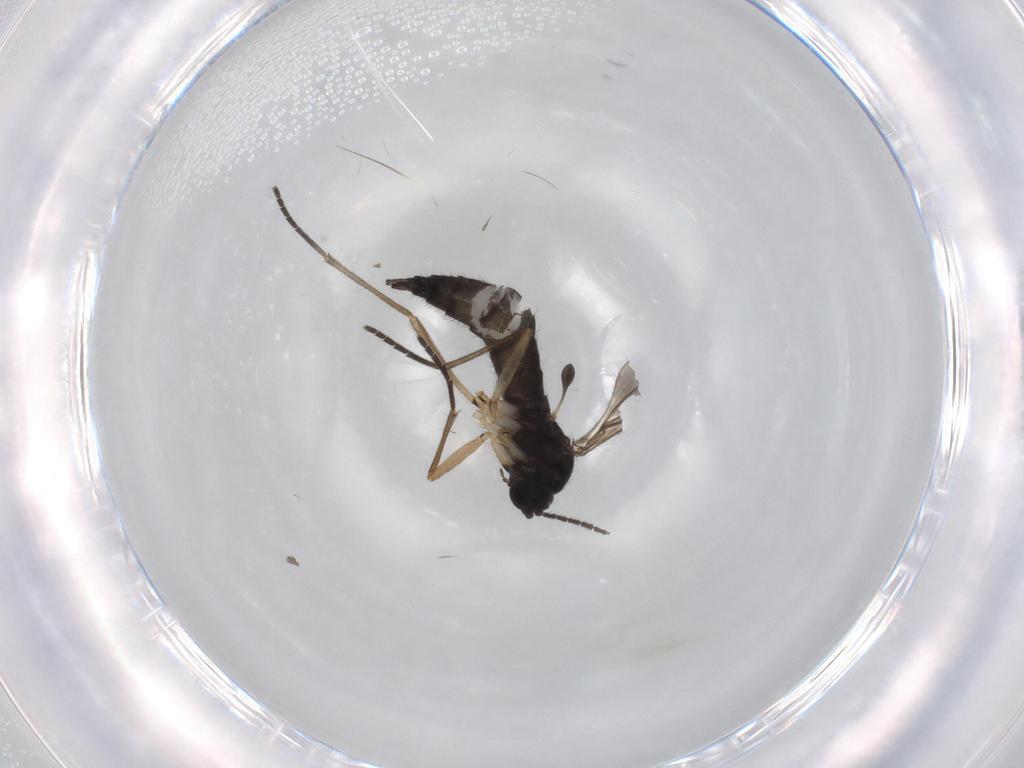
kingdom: Animalia
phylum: Arthropoda
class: Insecta
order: Diptera
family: Sciaridae
